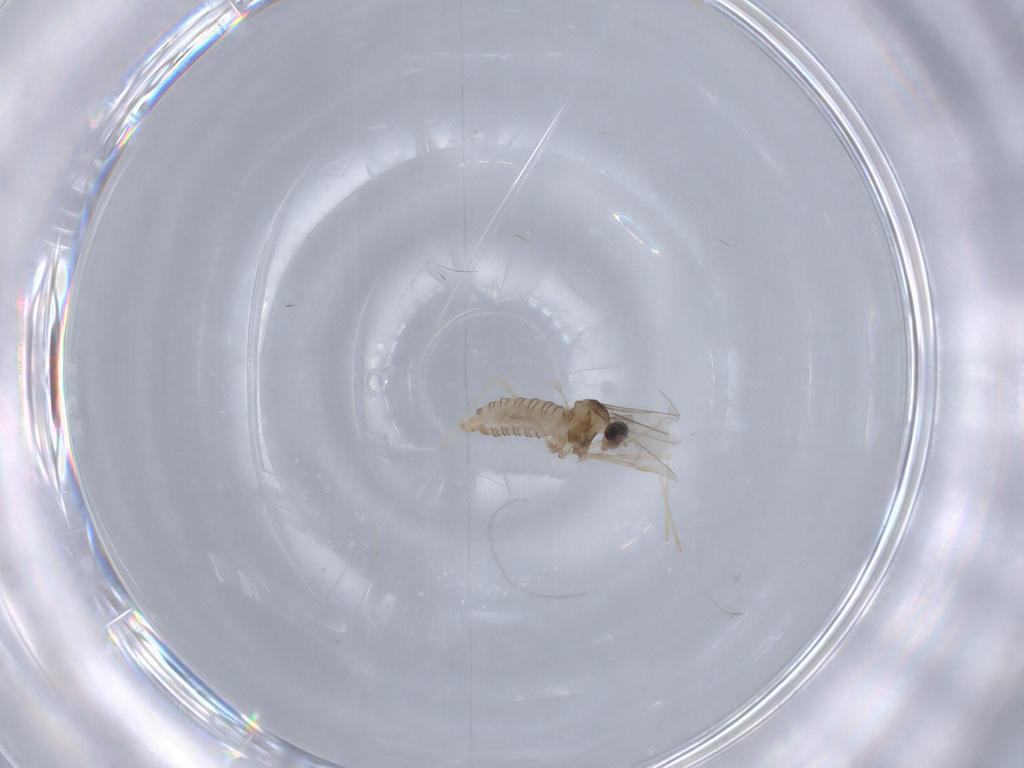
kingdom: Animalia
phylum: Arthropoda
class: Insecta
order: Diptera
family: Cecidomyiidae
